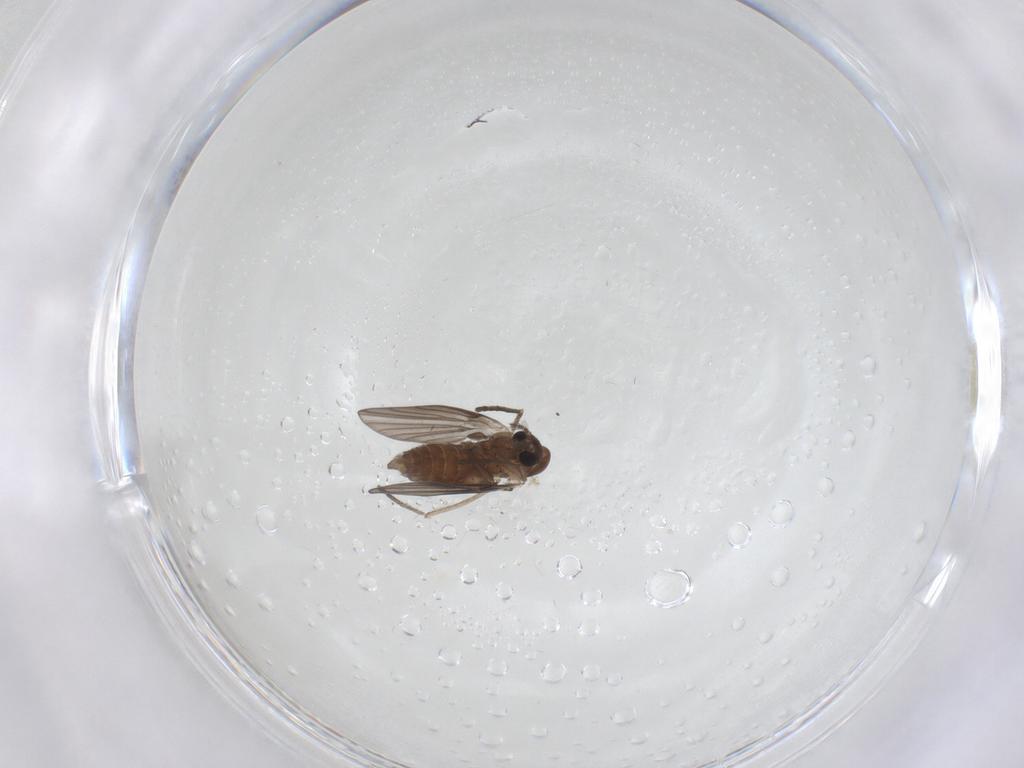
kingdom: Animalia
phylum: Arthropoda
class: Insecta
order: Diptera
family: Psychodidae
